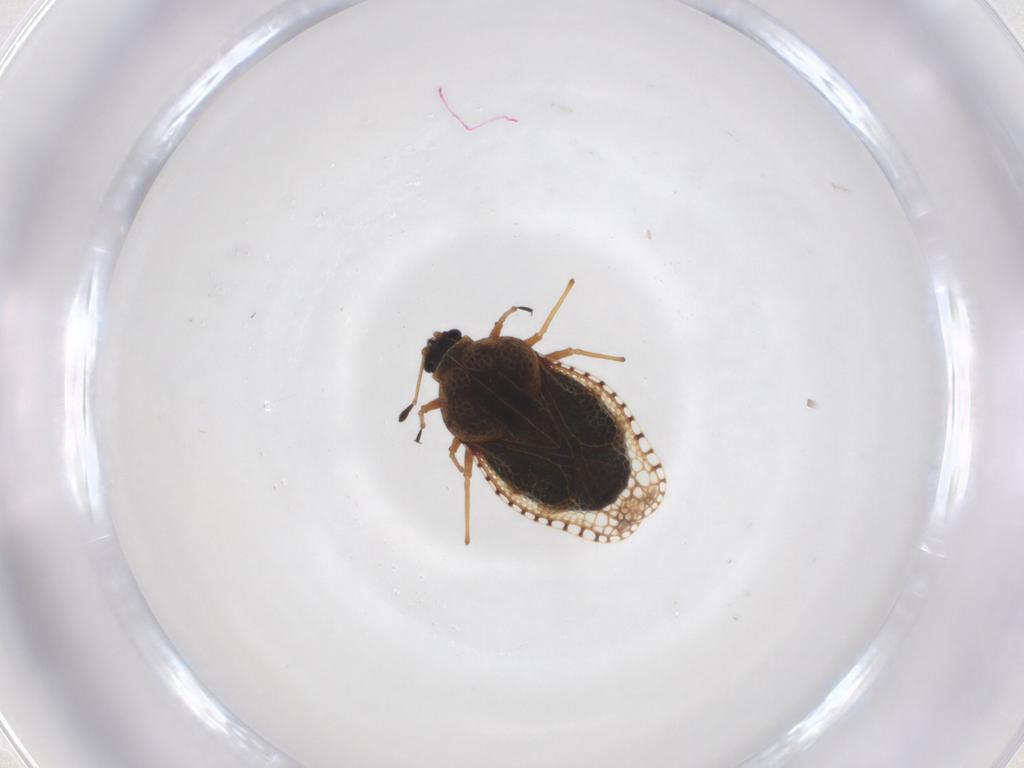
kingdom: Animalia
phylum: Arthropoda
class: Insecta
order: Hemiptera
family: Tingidae
